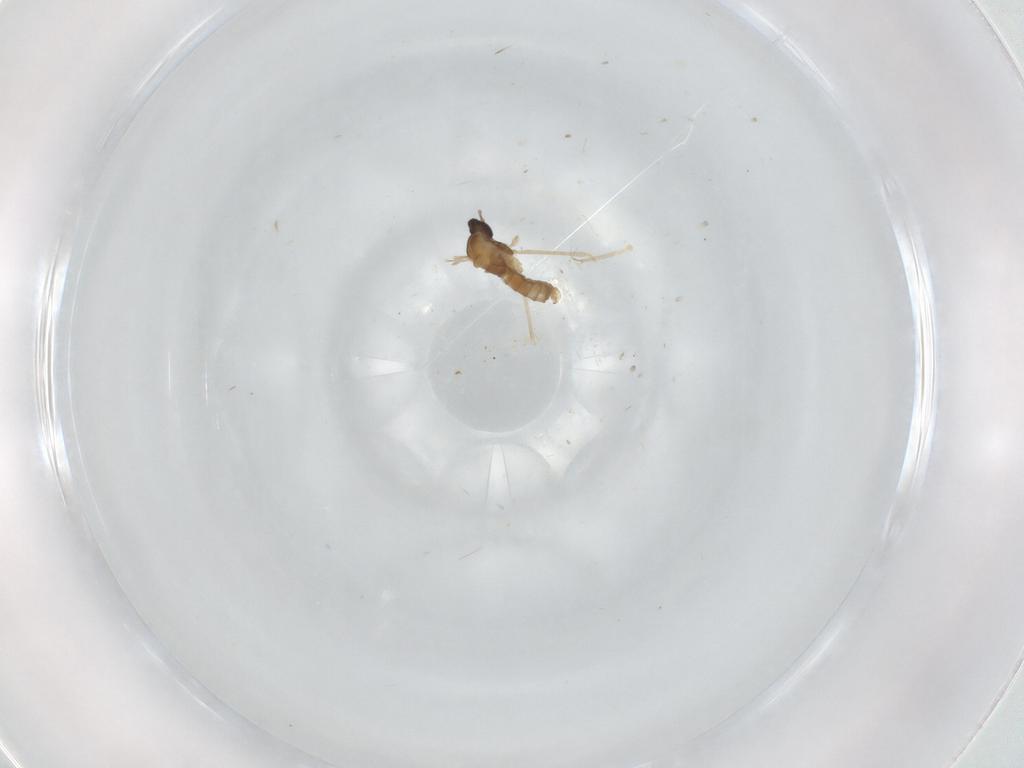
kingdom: Animalia
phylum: Arthropoda
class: Insecta
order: Diptera
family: Cecidomyiidae
